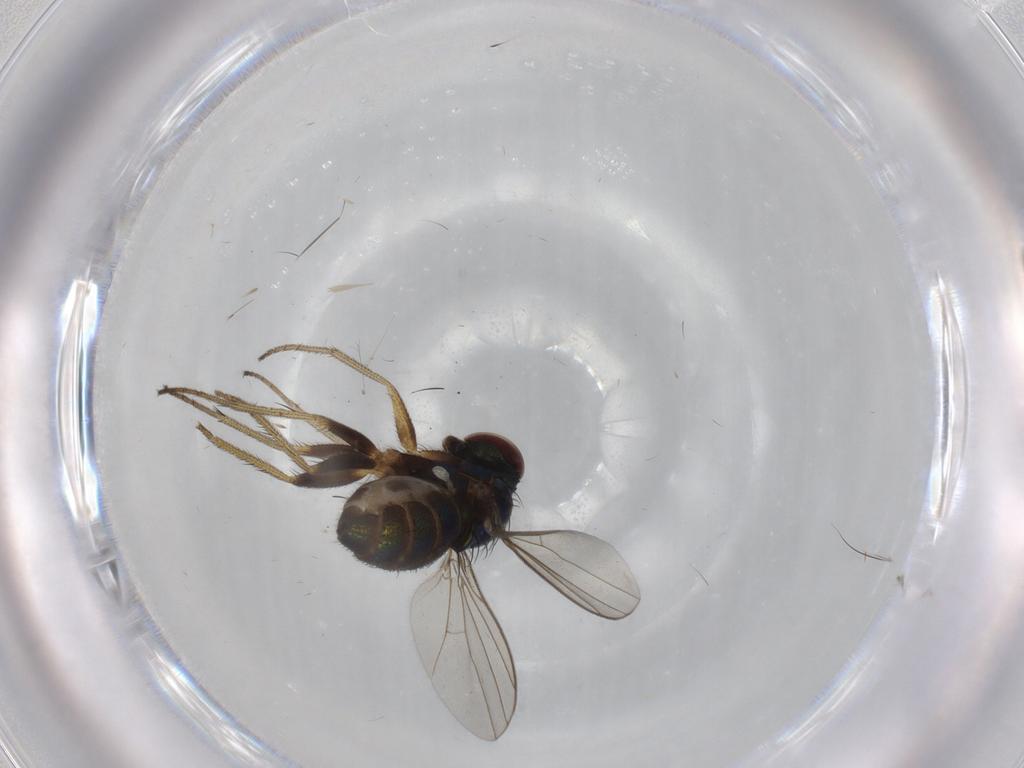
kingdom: Animalia
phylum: Arthropoda
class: Insecta
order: Diptera
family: Dolichopodidae
